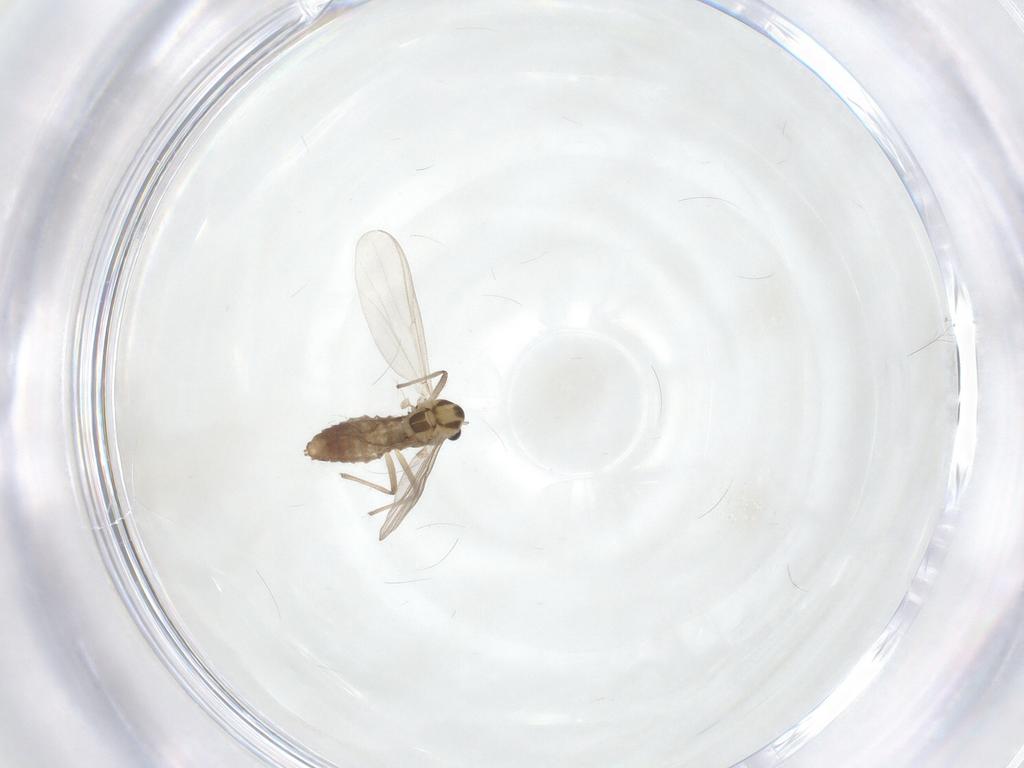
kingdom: Animalia
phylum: Arthropoda
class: Insecta
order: Diptera
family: Chironomidae
